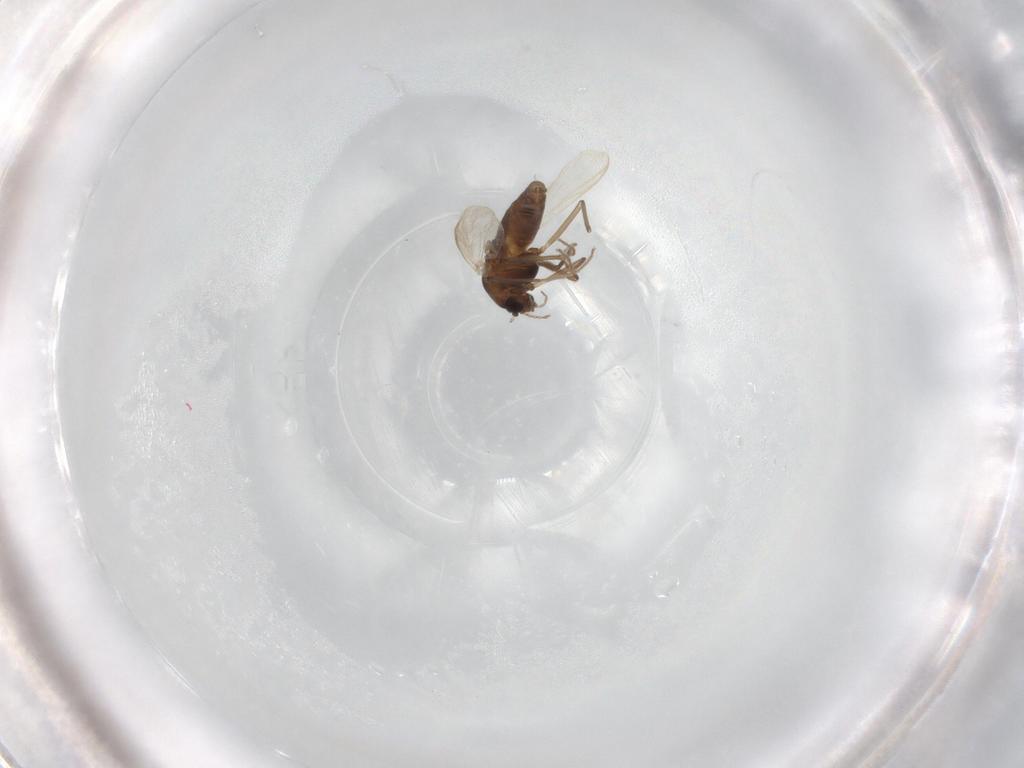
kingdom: Animalia
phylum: Arthropoda
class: Insecta
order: Diptera
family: Chironomidae
